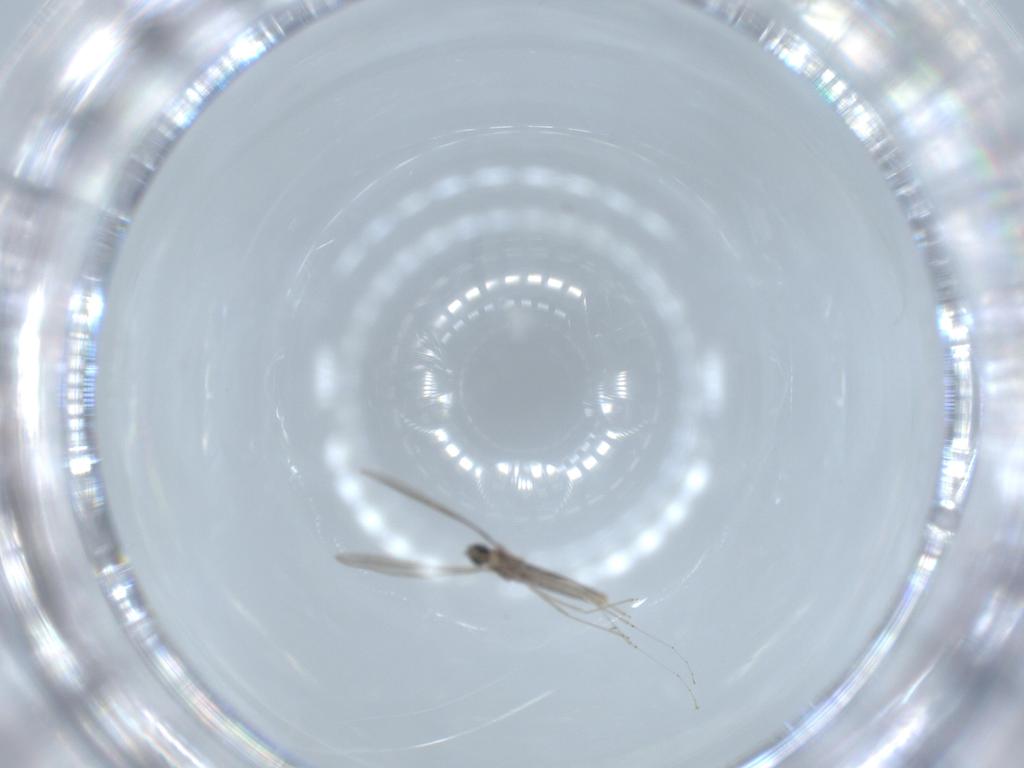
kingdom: Animalia
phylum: Arthropoda
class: Insecta
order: Diptera
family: Cecidomyiidae
